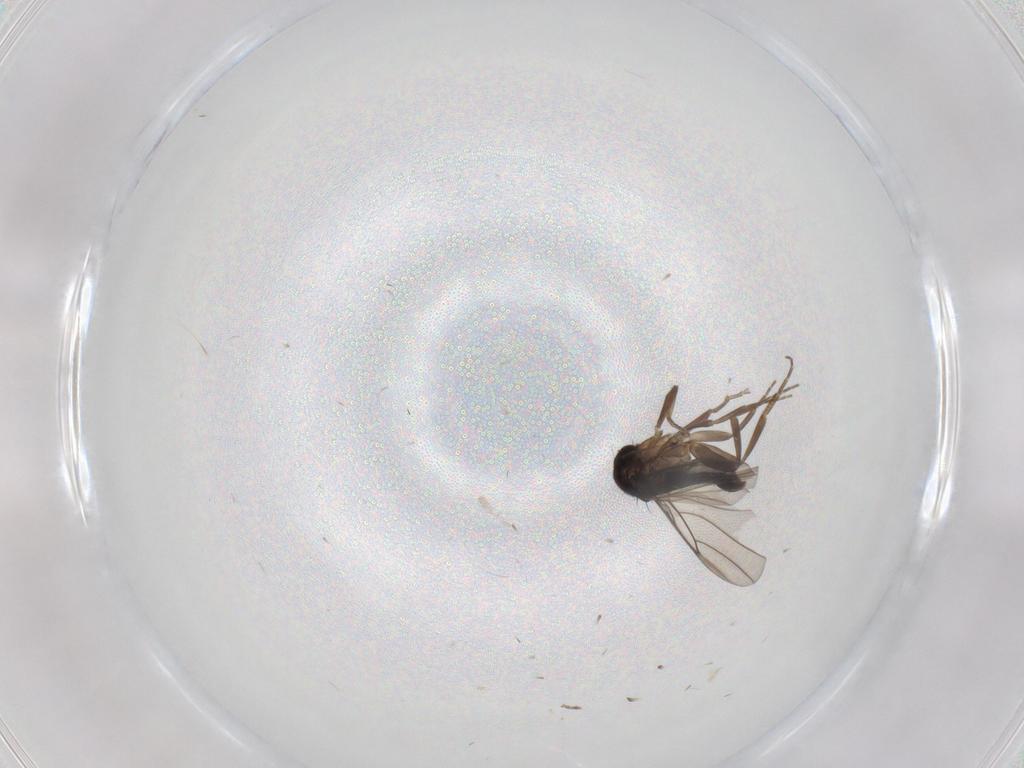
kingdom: Animalia
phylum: Arthropoda
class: Insecta
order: Diptera
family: Phoridae
